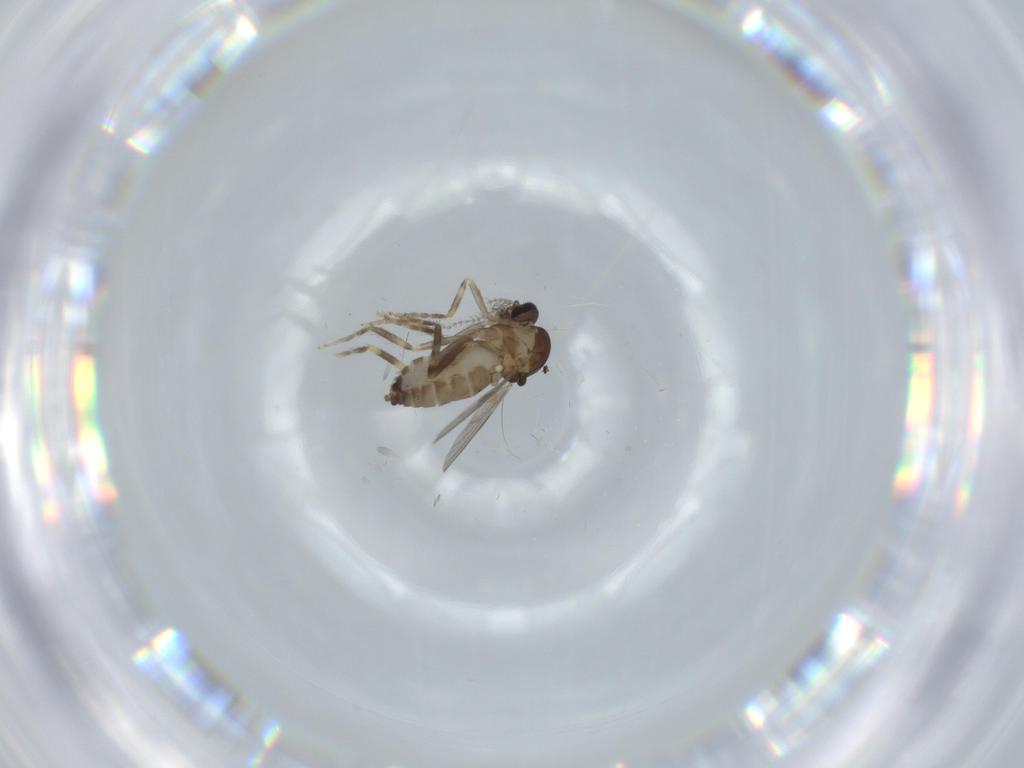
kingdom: Animalia
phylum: Arthropoda
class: Insecta
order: Diptera
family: Ceratopogonidae
